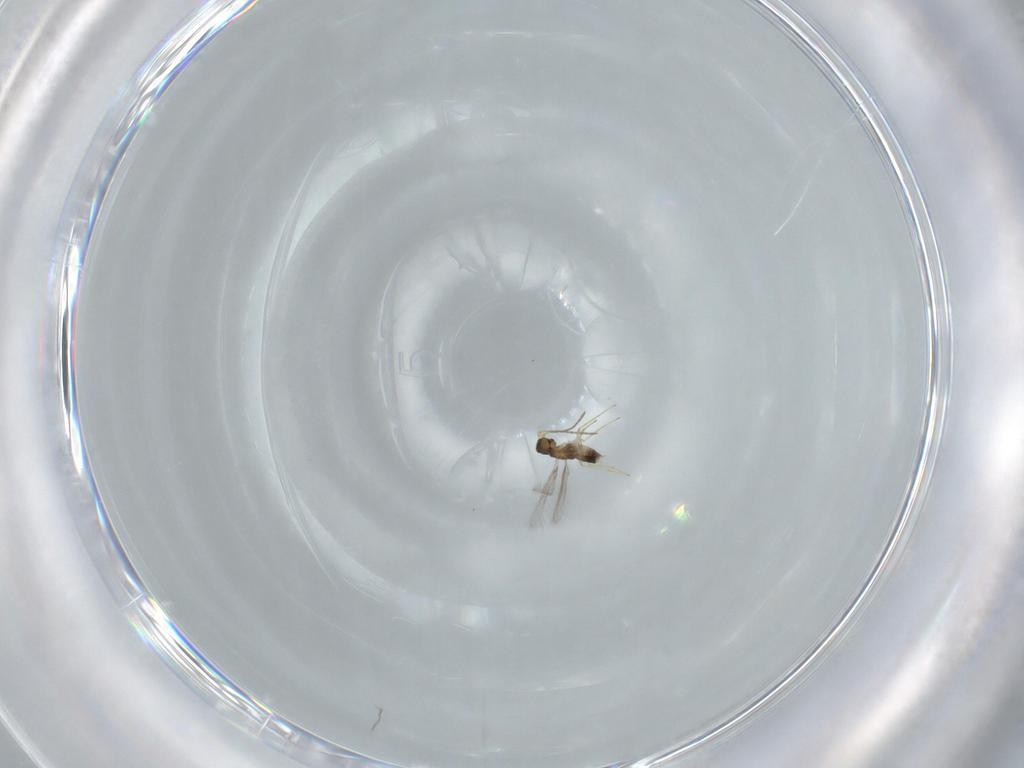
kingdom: Animalia
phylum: Arthropoda
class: Insecta
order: Hymenoptera
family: Mymaridae
